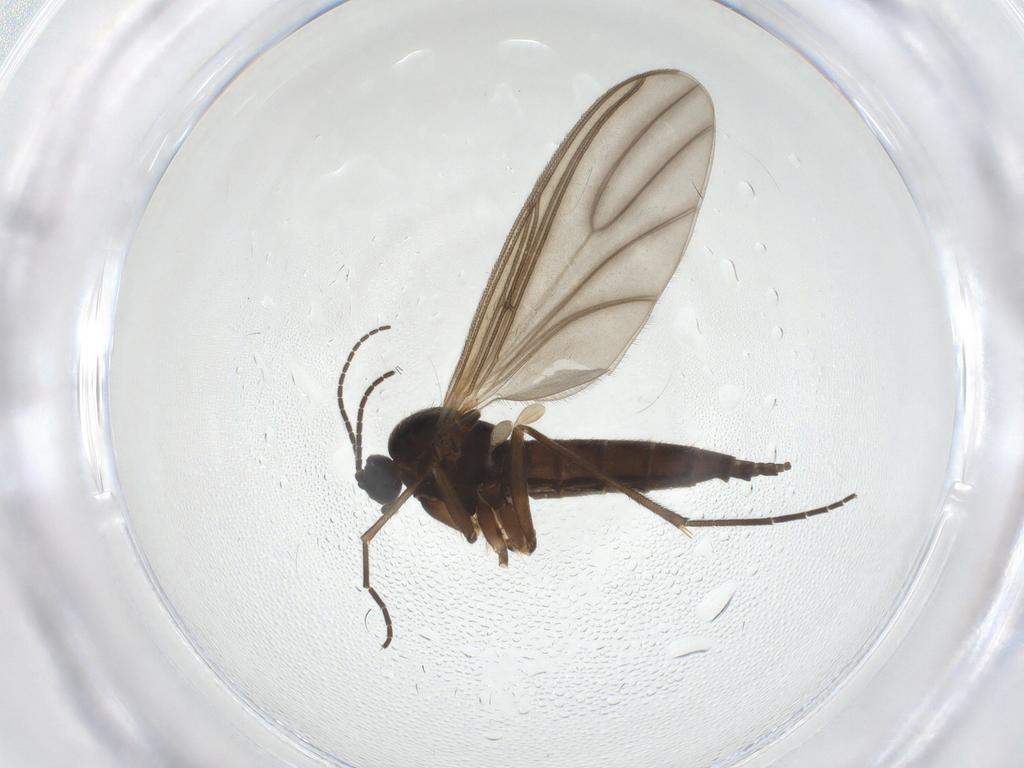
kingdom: Animalia
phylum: Arthropoda
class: Insecta
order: Diptera
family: Sciaridae
